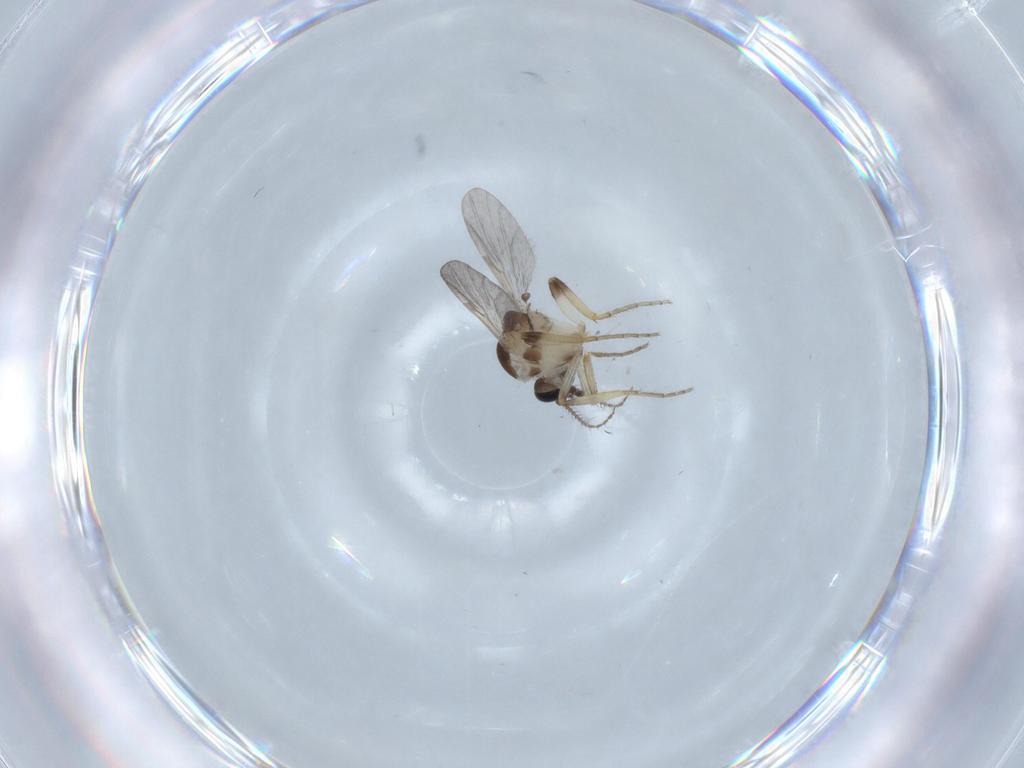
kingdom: Animalia
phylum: Arthropoda
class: Insecta
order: Diptera
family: Ceratopogonidae
